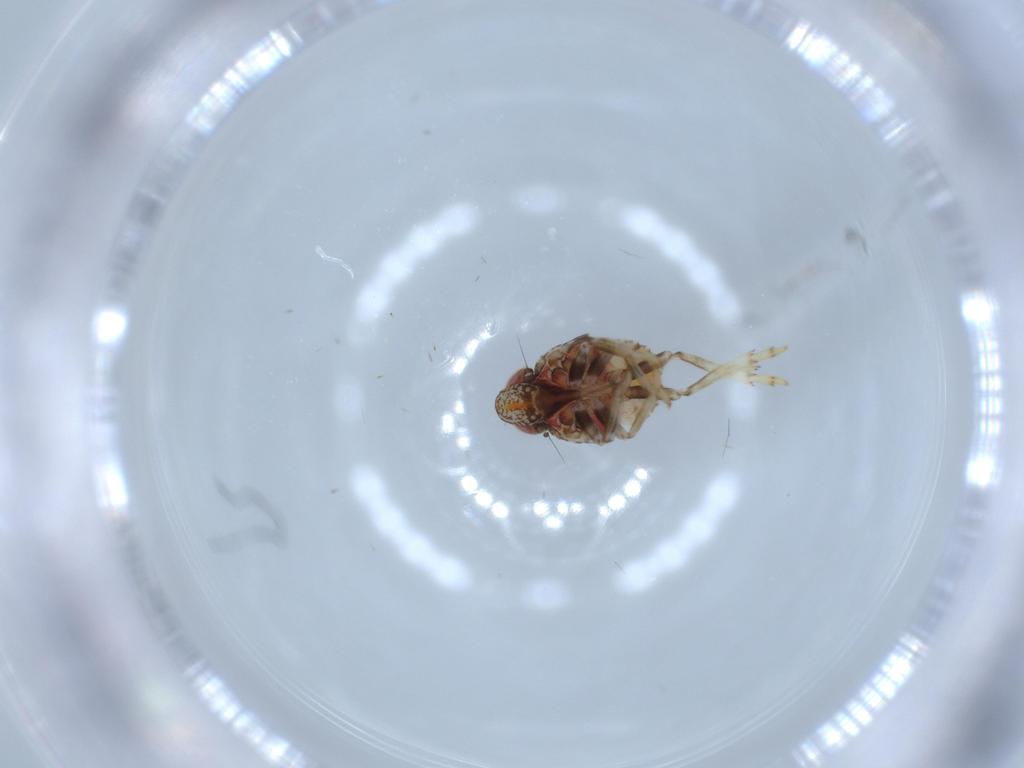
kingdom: Animalia
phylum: Arthropoda
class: Insecta
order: Hemiptera
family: Issidae
